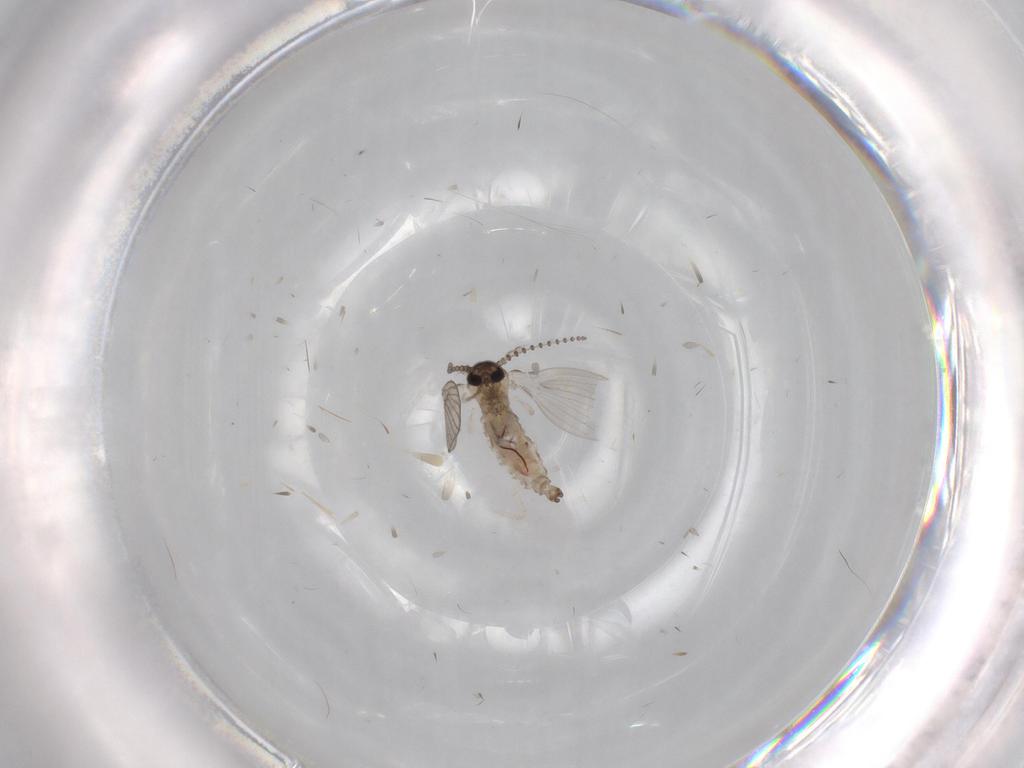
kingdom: Animalia
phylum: Arthropoda
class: Insecta
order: Diptera
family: Psychodidae
